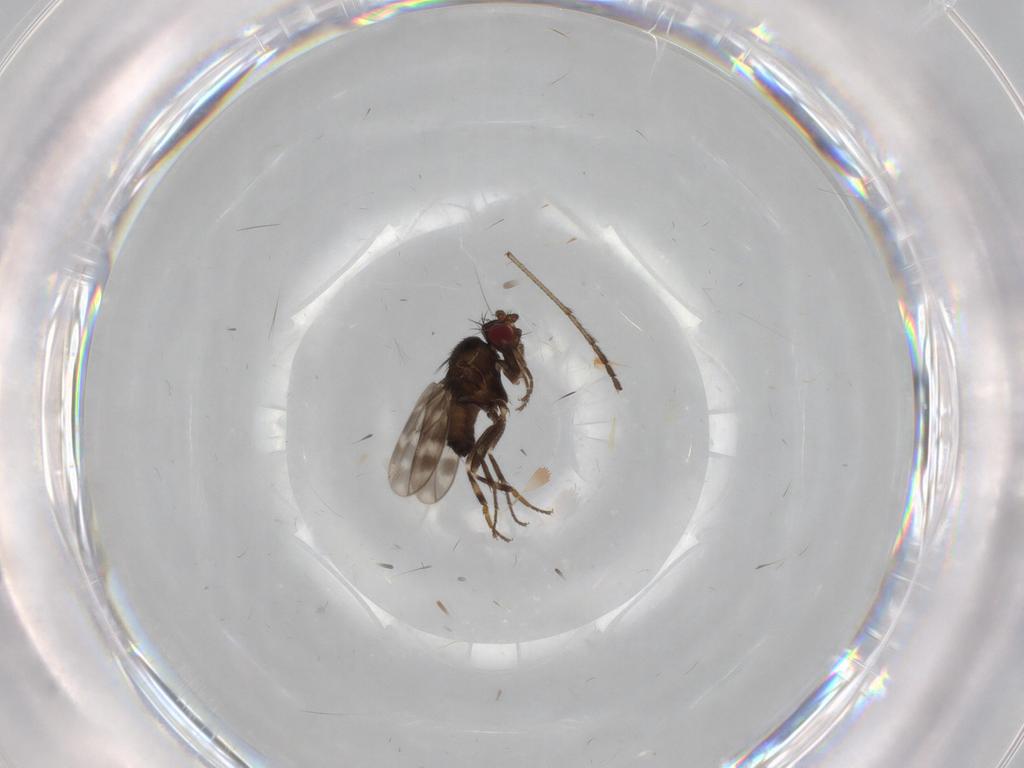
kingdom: Animalia
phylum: Arthropoda
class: Insecta
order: Diptera
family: Sphaeroceridae
